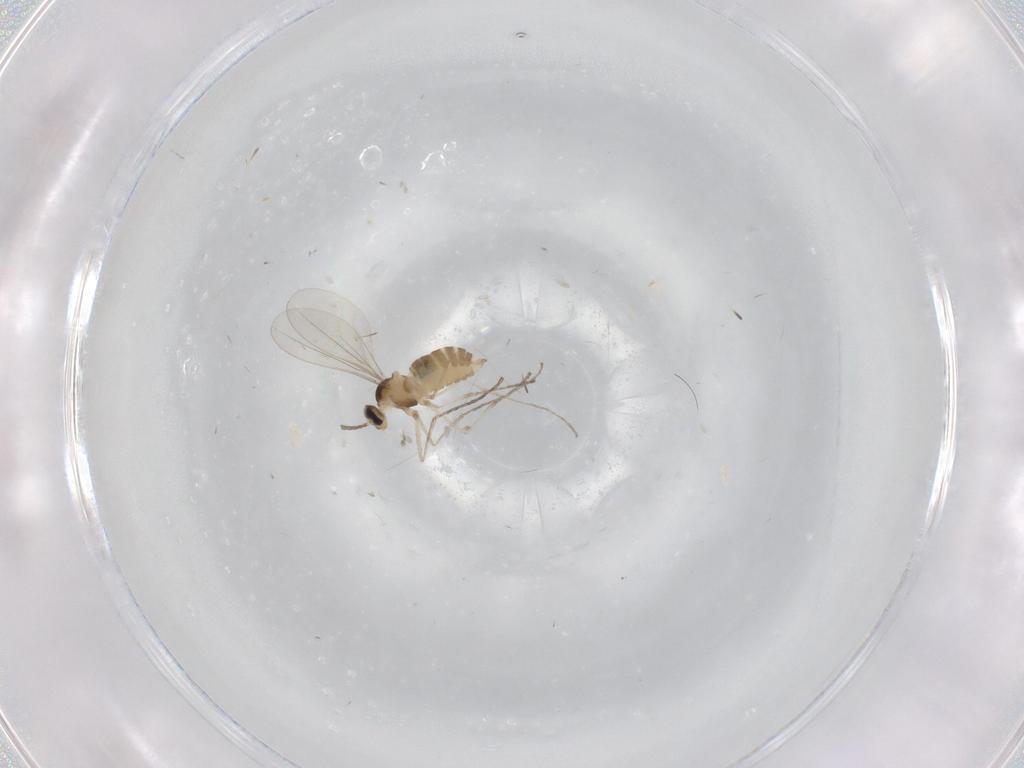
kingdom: Animalia
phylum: Arthropoda
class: Insecta
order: Diptera
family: Cecidomyiidae
